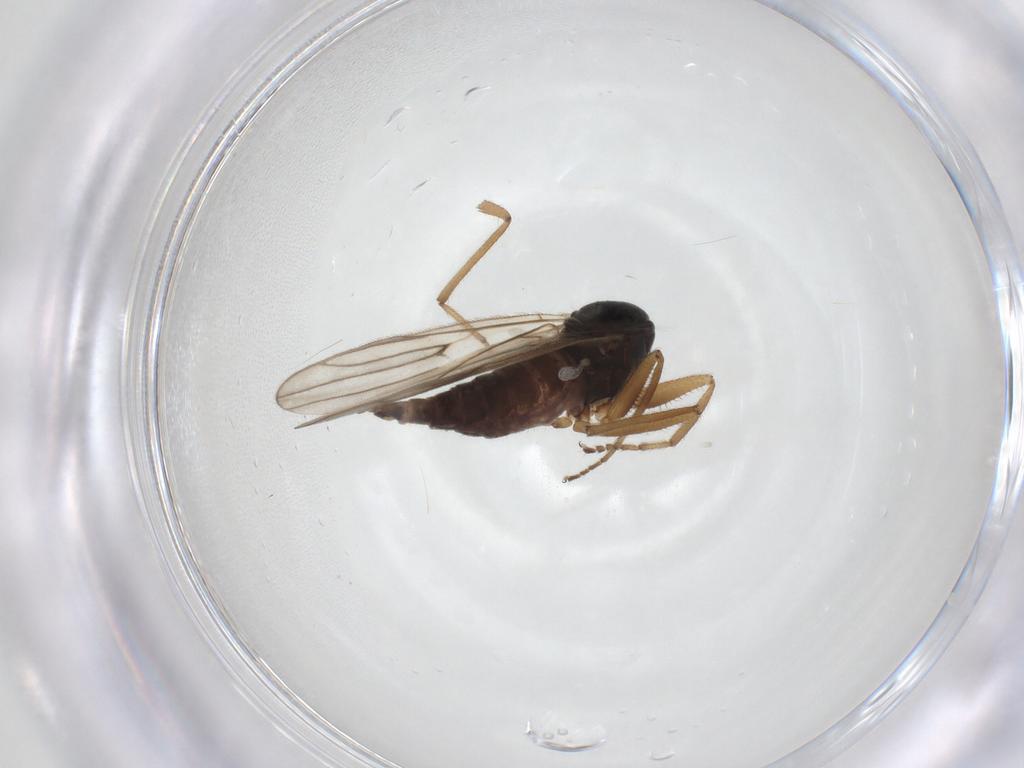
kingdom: Animalia
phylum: Arthropoda
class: Insecta
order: Diptera
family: Hybotidae
